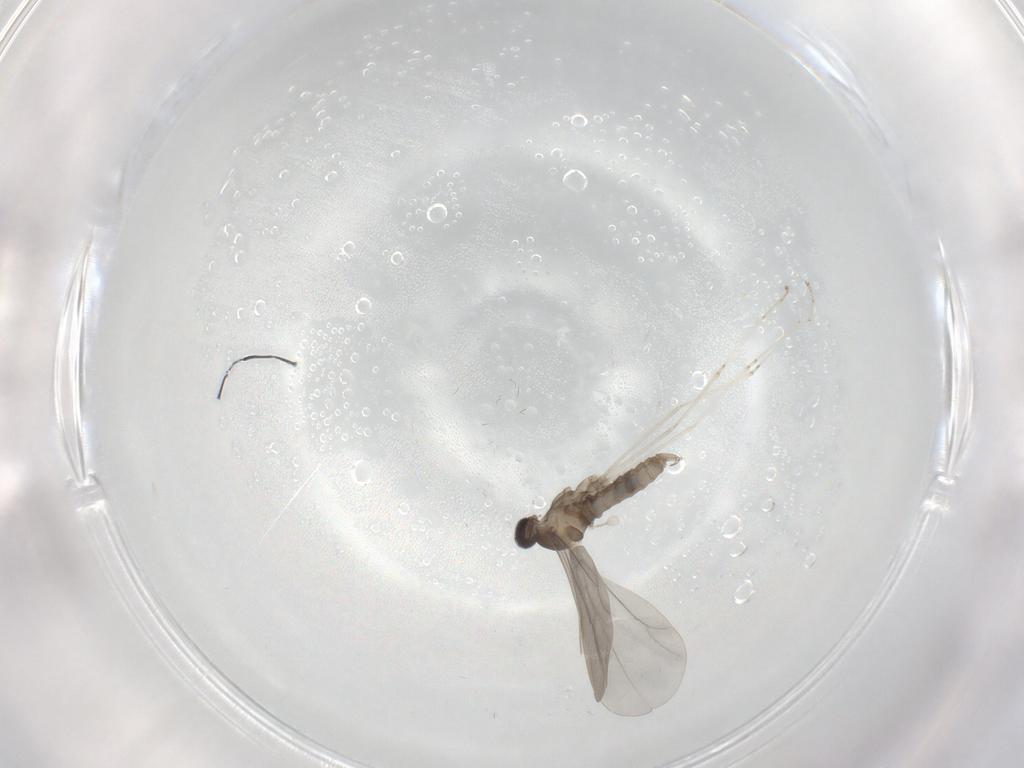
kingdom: Animalia
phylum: Arthropoda
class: Insecta
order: Diptera
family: Cecidomyiidae
